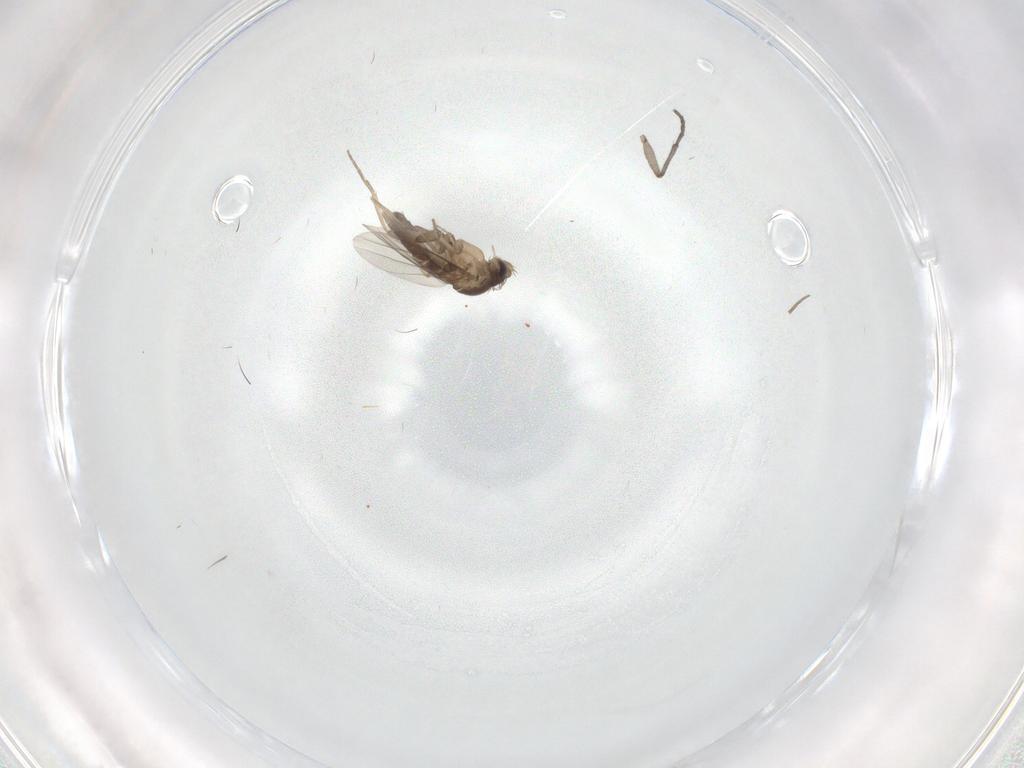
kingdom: Animalia
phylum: Arthropoda
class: Insecta
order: Diptera
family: Sciaridae
